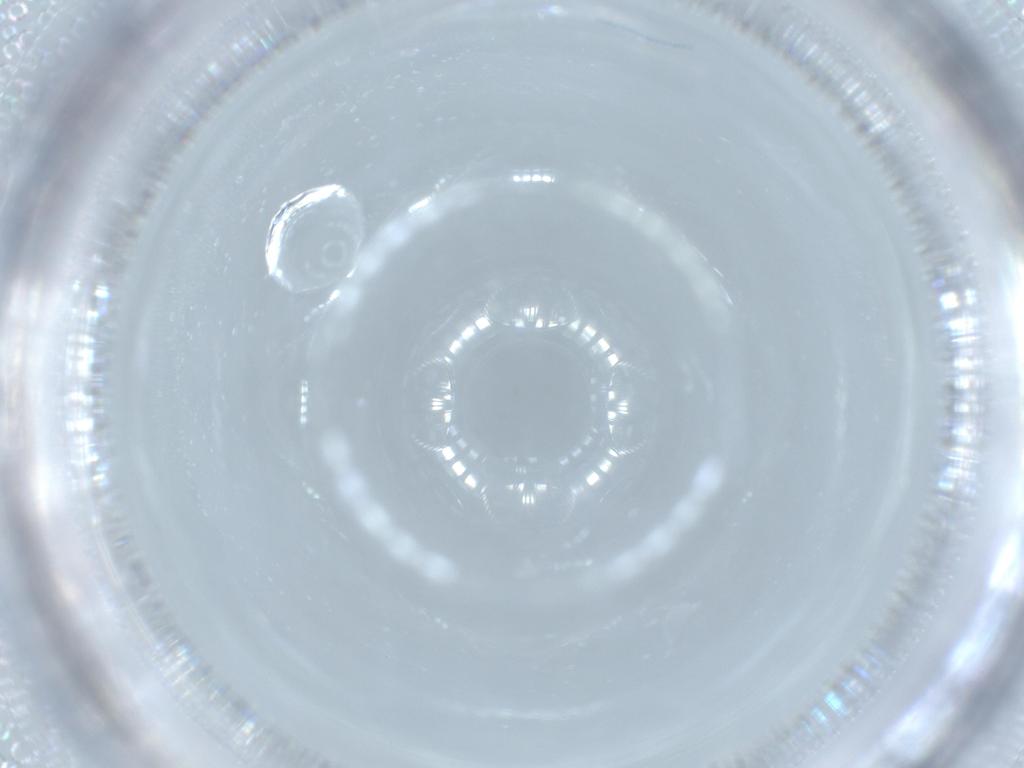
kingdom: Animalia
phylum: Arthropoda
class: Insecta
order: Diptera
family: Cecidomyiidae
